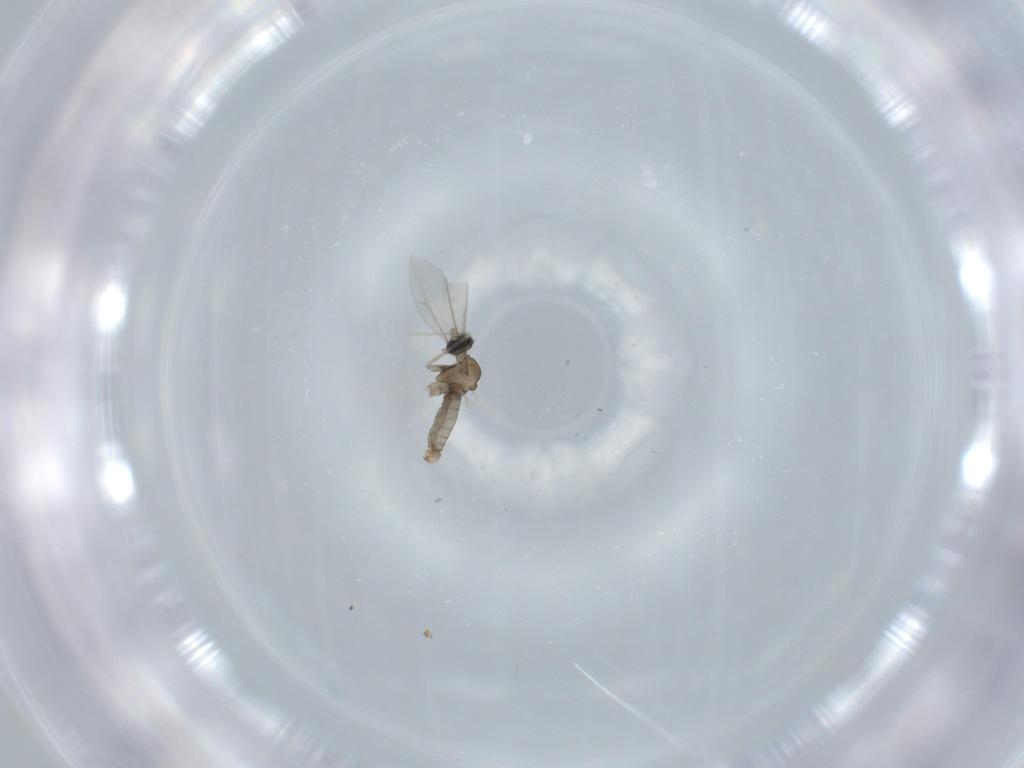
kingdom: Animalia
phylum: Arthropoda
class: Insecta
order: Diptera
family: Cecidomyiidae
